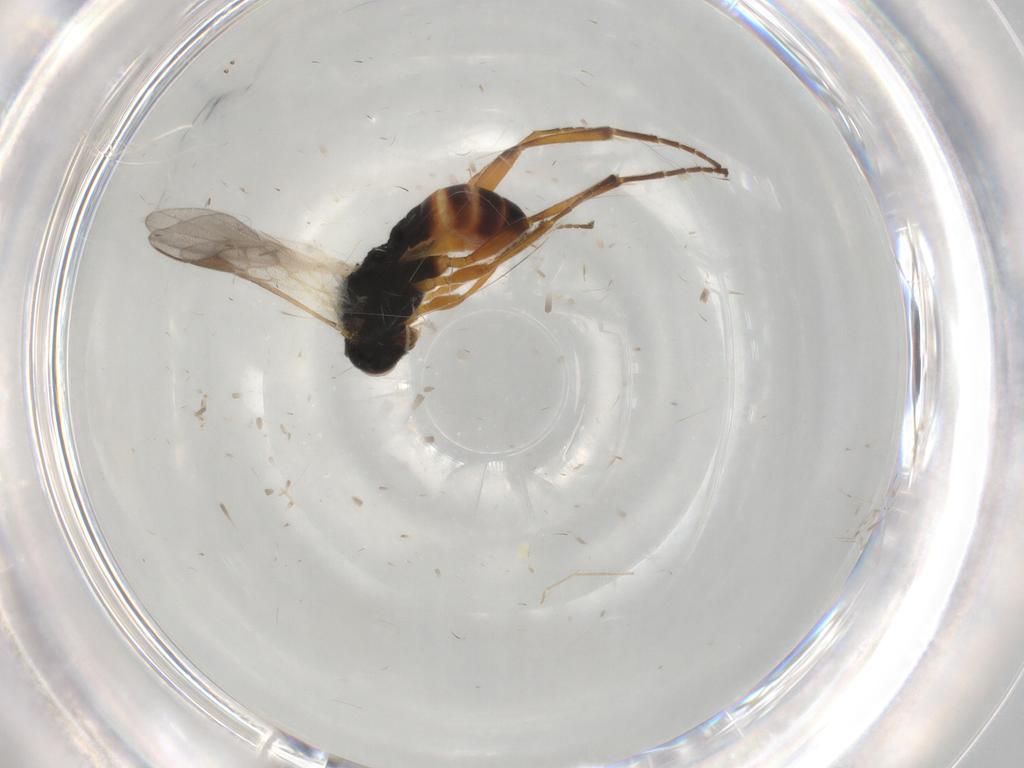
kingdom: Animalia
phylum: Arthropoda
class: Insecta
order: Hymenoptera
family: Braconidae
